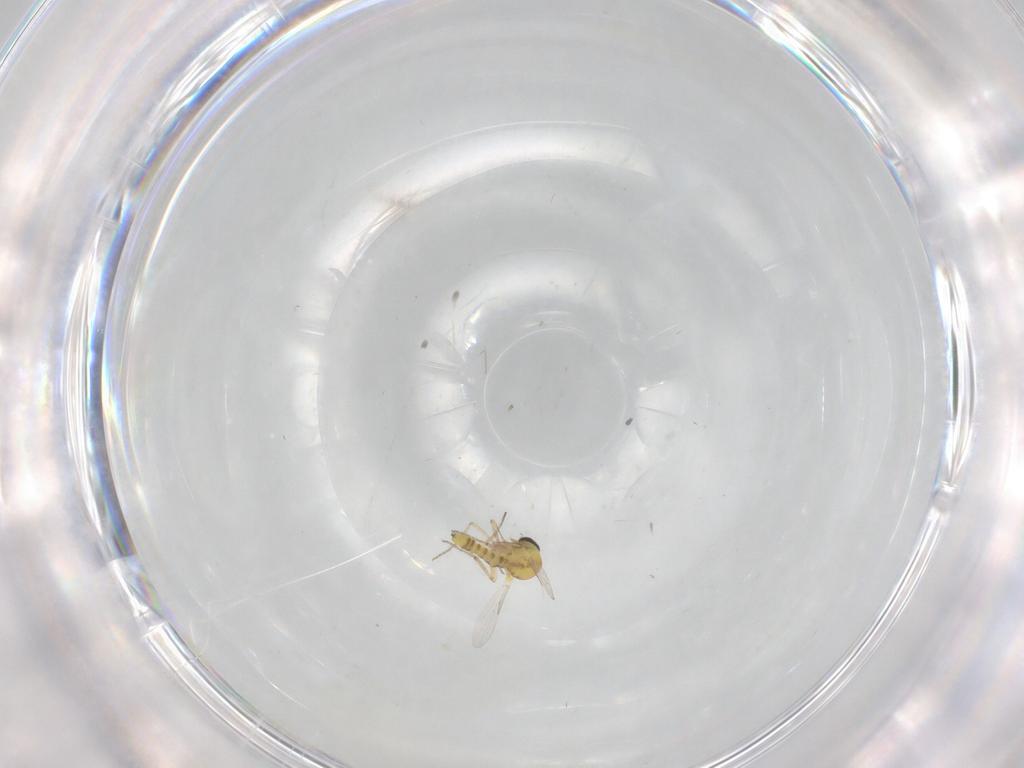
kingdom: Animalia
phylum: Arthropoda
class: Insecta
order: Diptera
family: Ceratopogonidae
